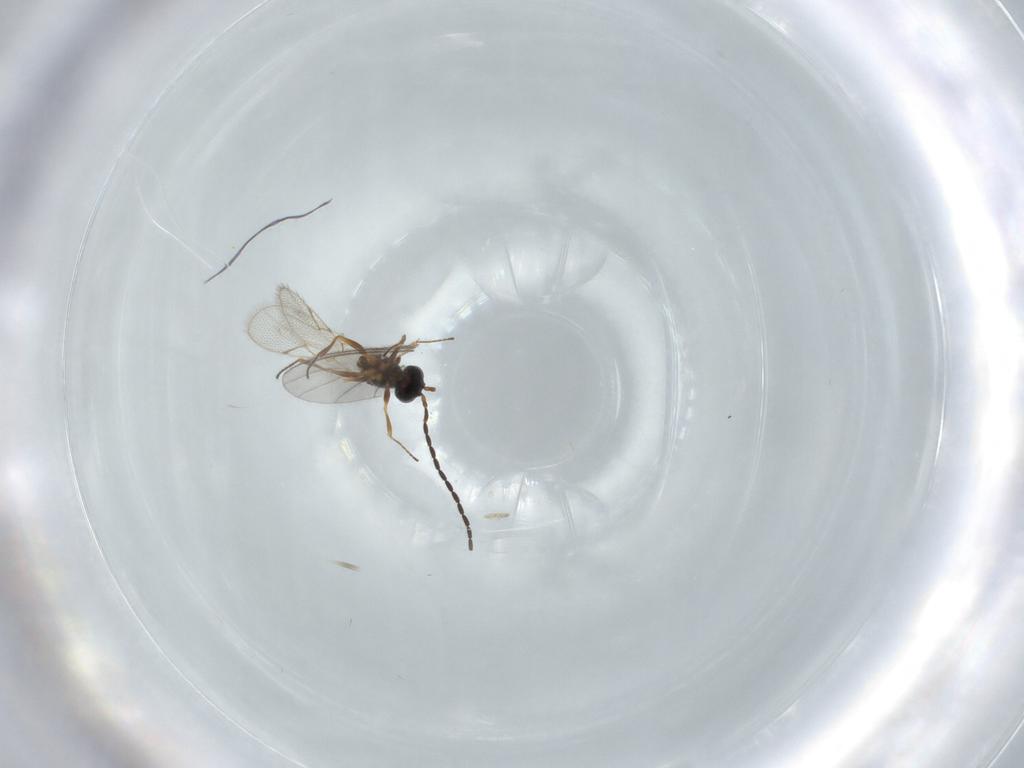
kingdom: Animalia
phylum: Arthropoda
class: Insecta
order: Hymenoptera
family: Figitidae
